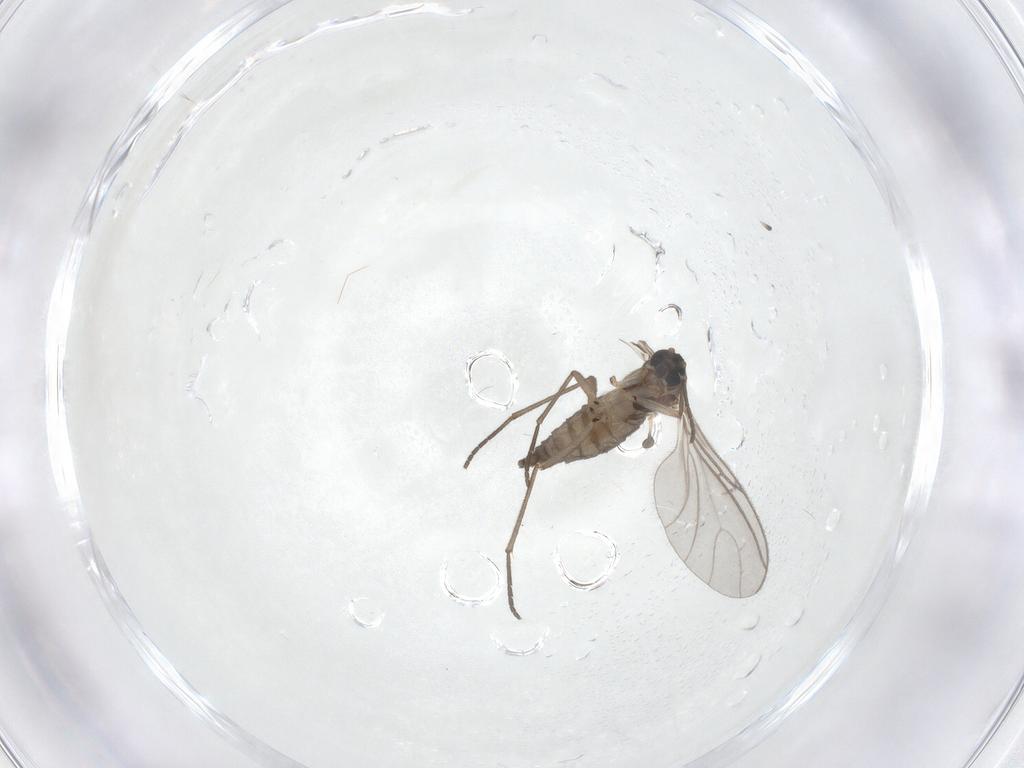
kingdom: Animalia
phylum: Arthropoda
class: Insecta
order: Diptera
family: Sciaridae
